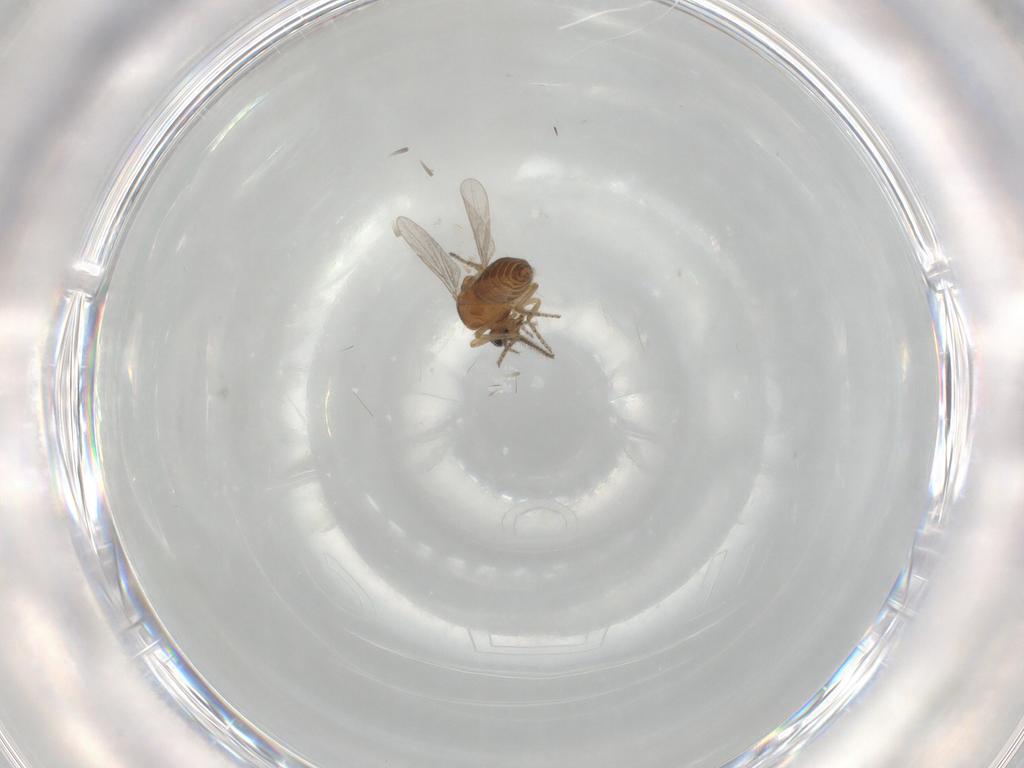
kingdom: Animalia
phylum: Arthropoda
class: Insecta
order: Diptera
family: Ceratopogonidae
